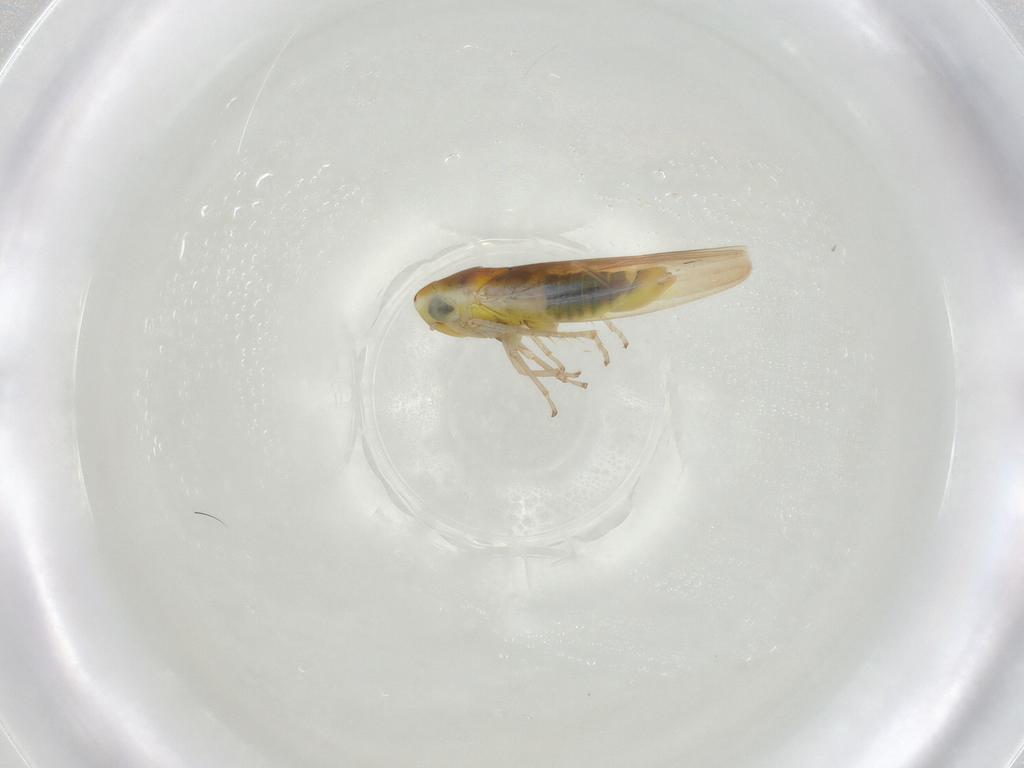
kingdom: Animalia
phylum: Arthropoda
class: Insecta
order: Hemiptera
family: Cicadellidae
